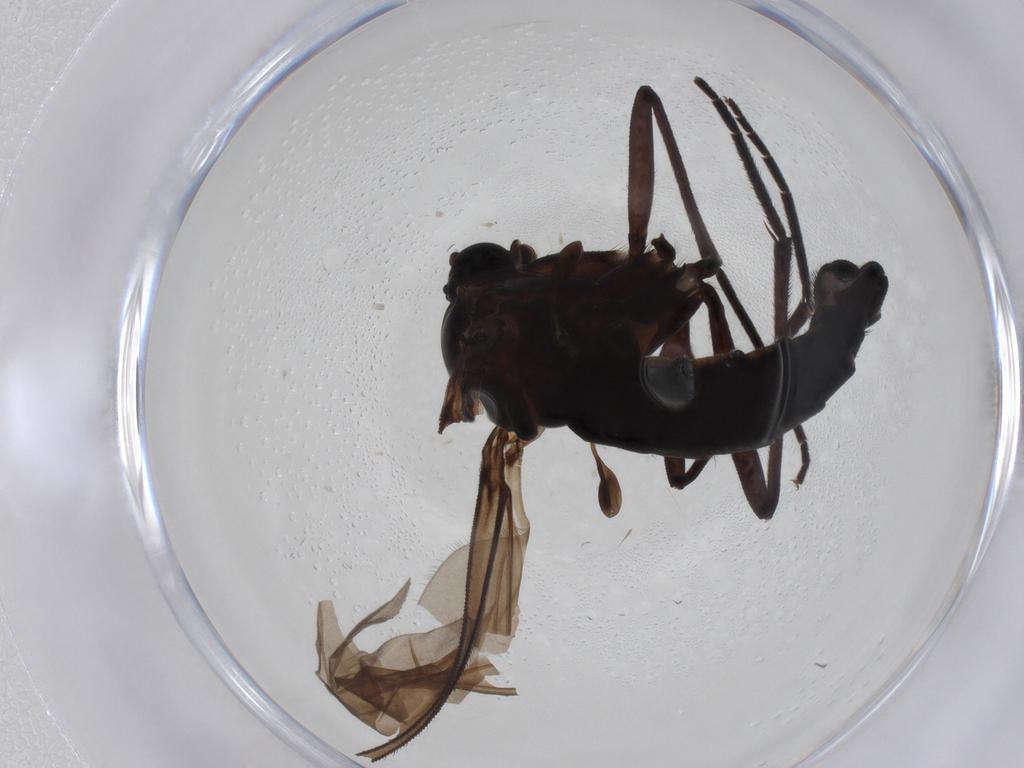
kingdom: Animalia
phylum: Arthropoda
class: Insecta
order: Diptera
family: Sciaridae
